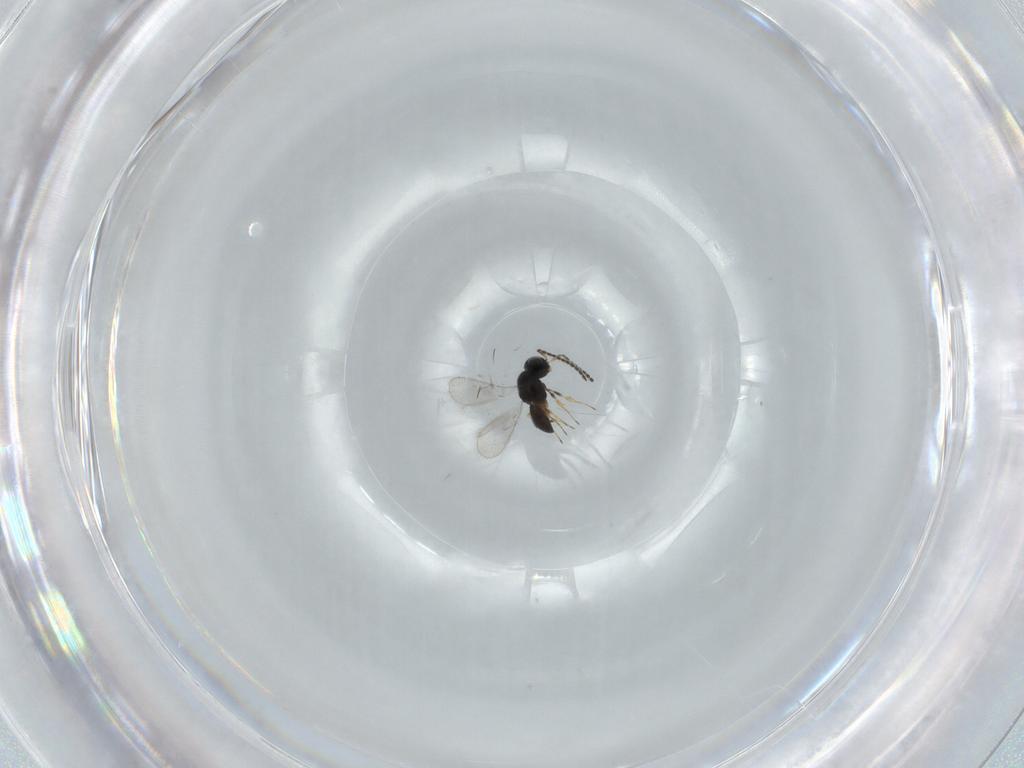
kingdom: Animalia
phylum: Arthropoda
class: Insecta
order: Hymenoptera
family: Scelionidae
